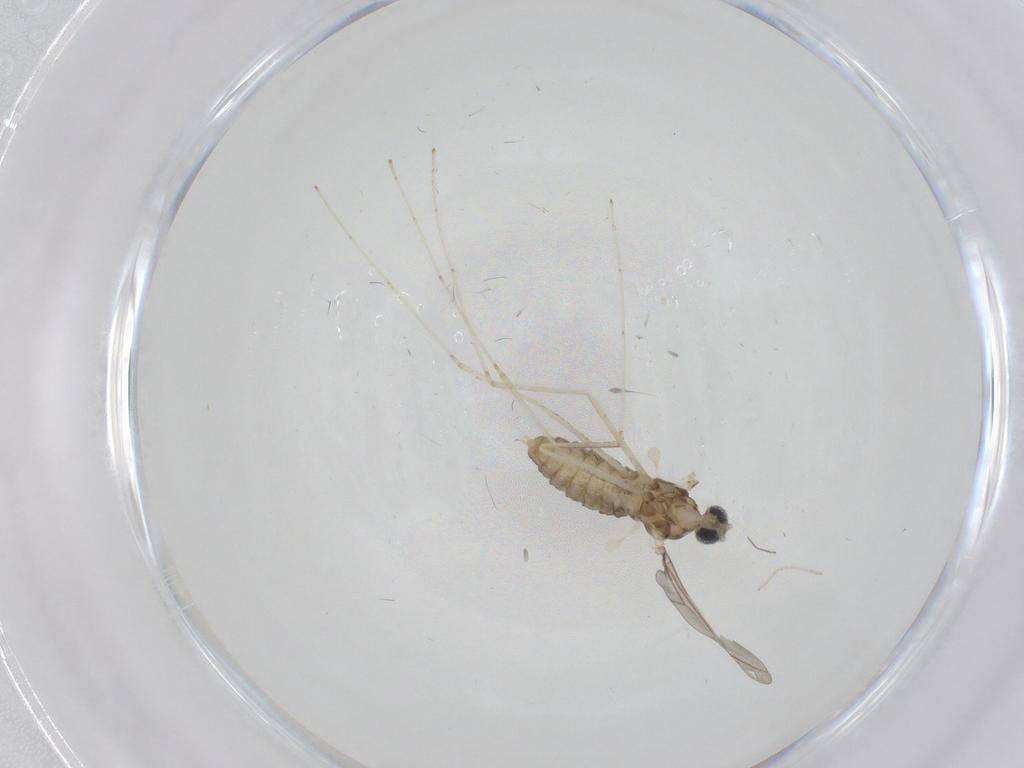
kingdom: Animalia
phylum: Arthropoda
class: Insecta
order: Diptera
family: Cecidomyiidae
